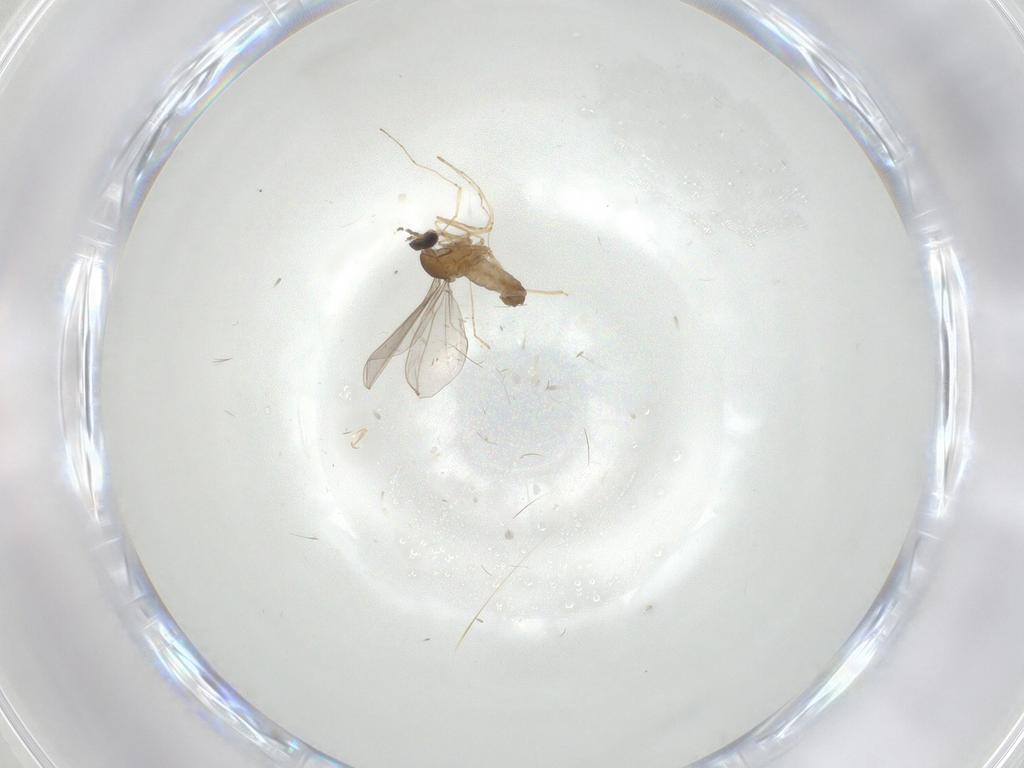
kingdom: Animalia
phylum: Arthropoda
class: Insecta
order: Diptera
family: Cecidomyiidae
